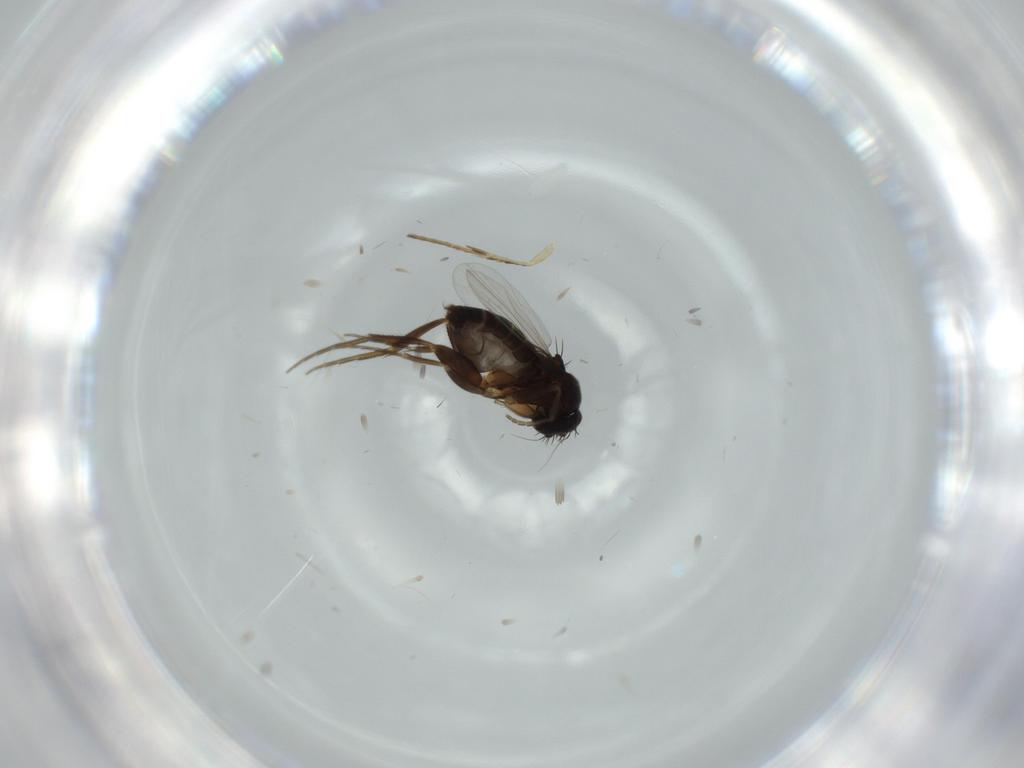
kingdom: Animalia
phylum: Arthropoda
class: Insecta
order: Diptera
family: Phoridae
